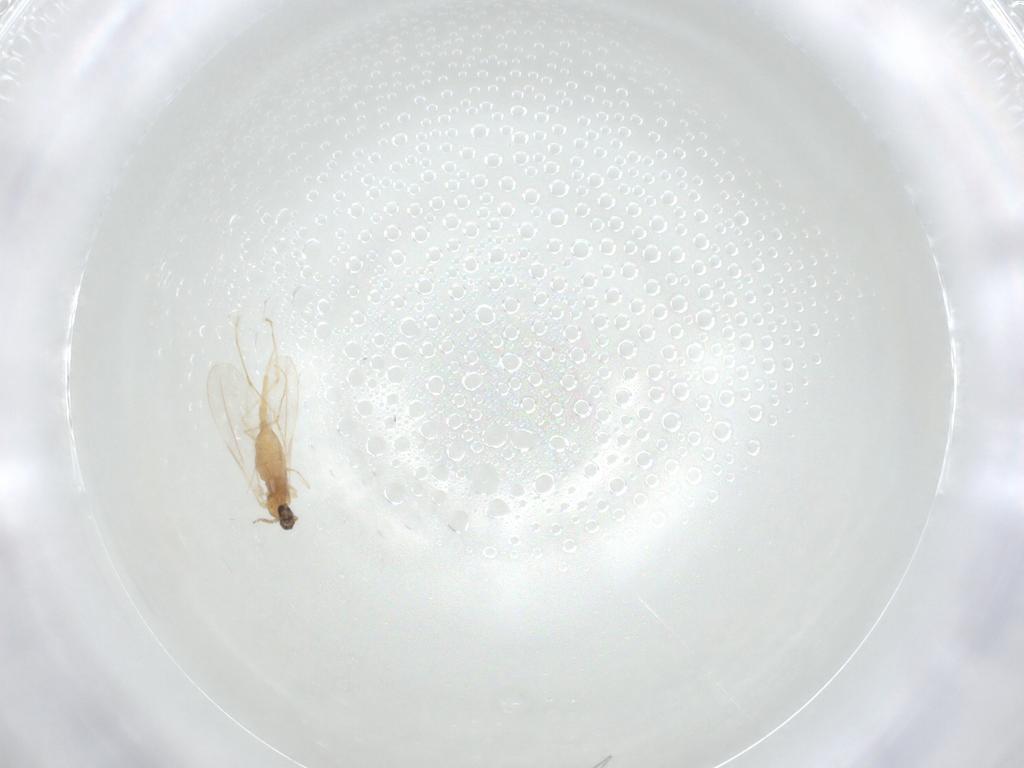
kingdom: Animalia
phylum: Arthropoda
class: Insecta
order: Diptera
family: Cecidomyiidae
